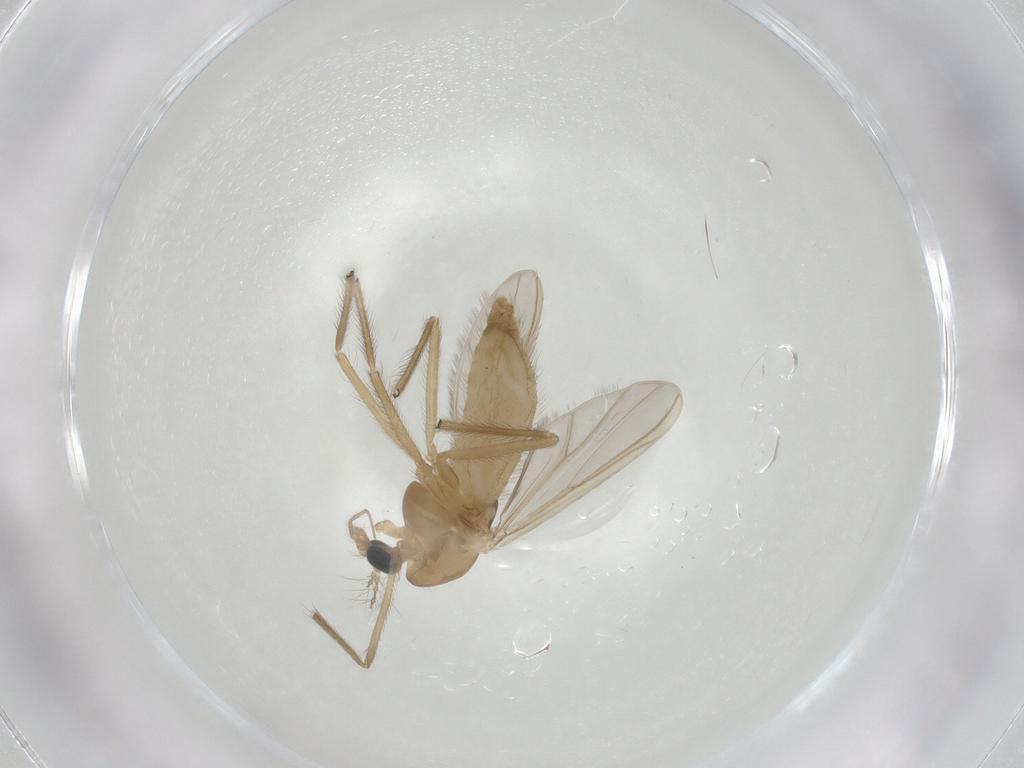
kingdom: Animalia
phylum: Arthropoda
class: Insecta
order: Diptera
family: Chironomidae
